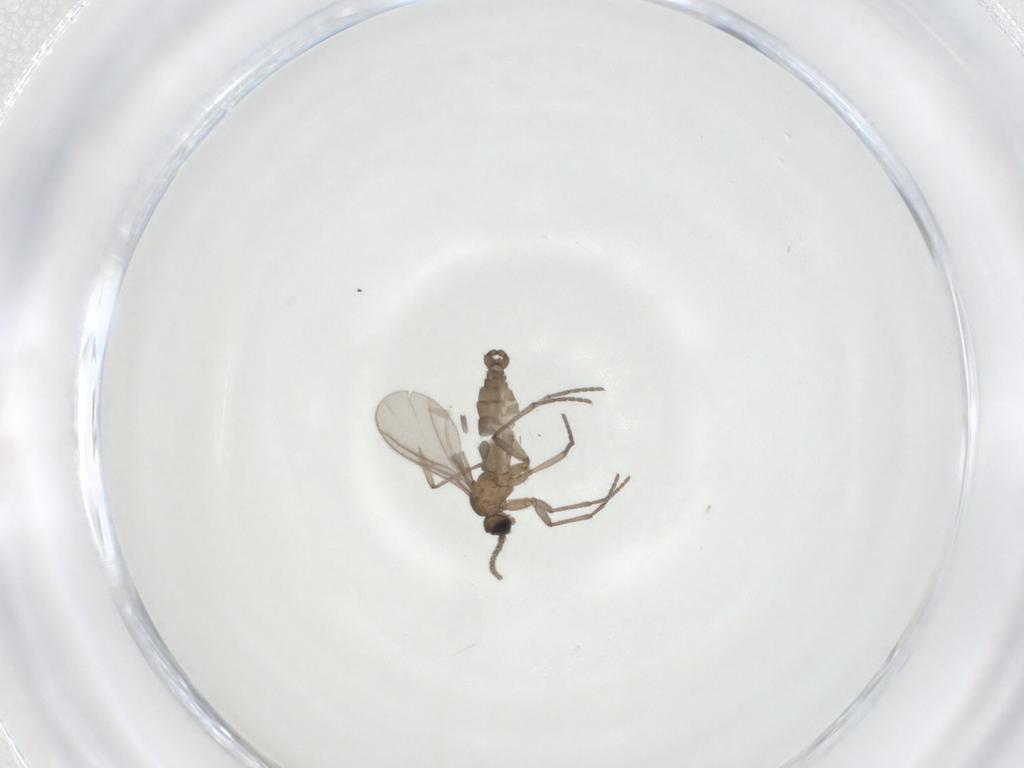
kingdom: Animalia
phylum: Arthropoda
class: Insecta
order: Diptera
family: Sciaridae
